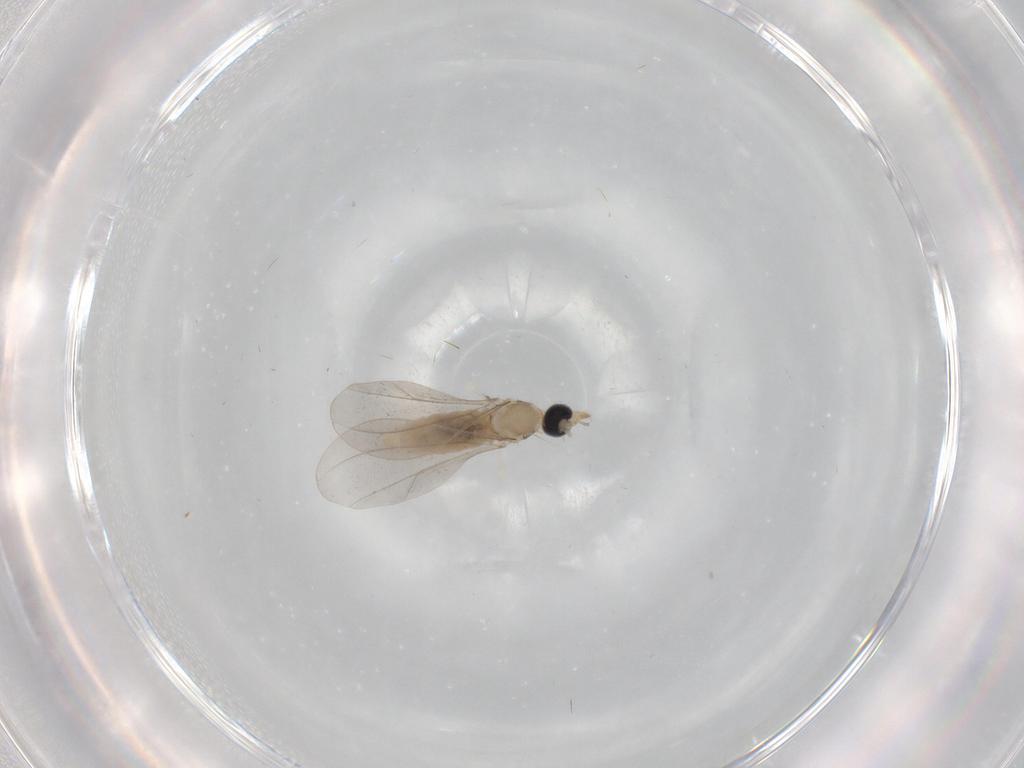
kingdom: Animalia
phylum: Arthropoda
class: Insecta
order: Diptera
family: Cecidomyiidae
